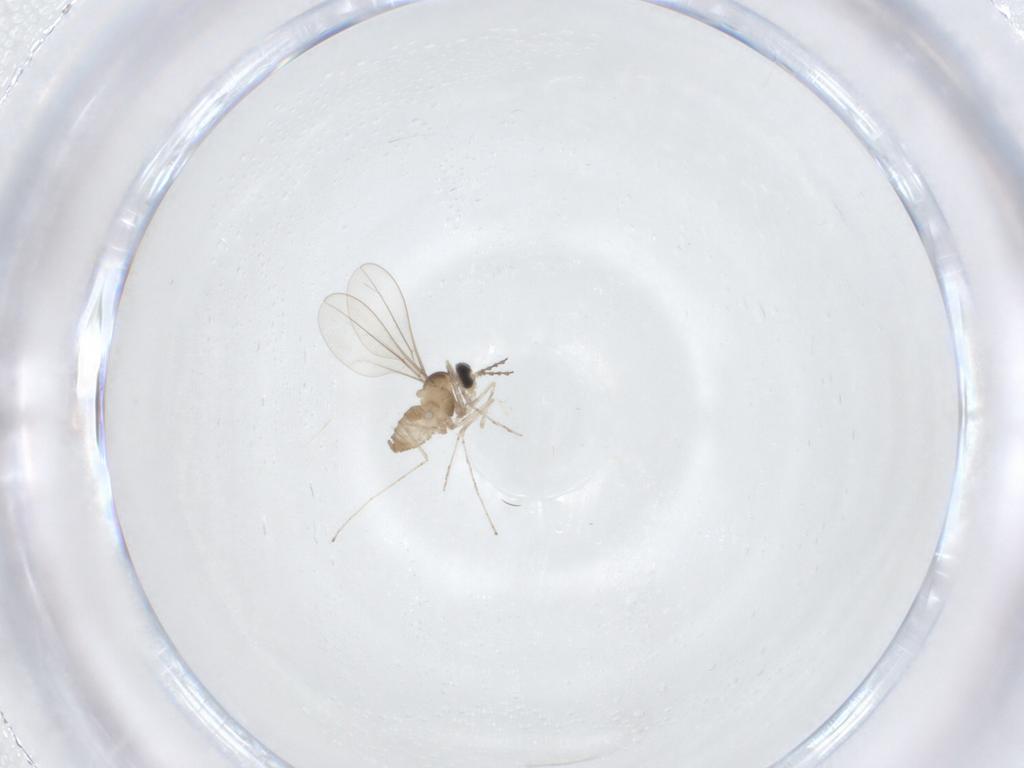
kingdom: Animalia
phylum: Arthropoda
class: Insecta
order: Diptera
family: Cecidomyiidae
